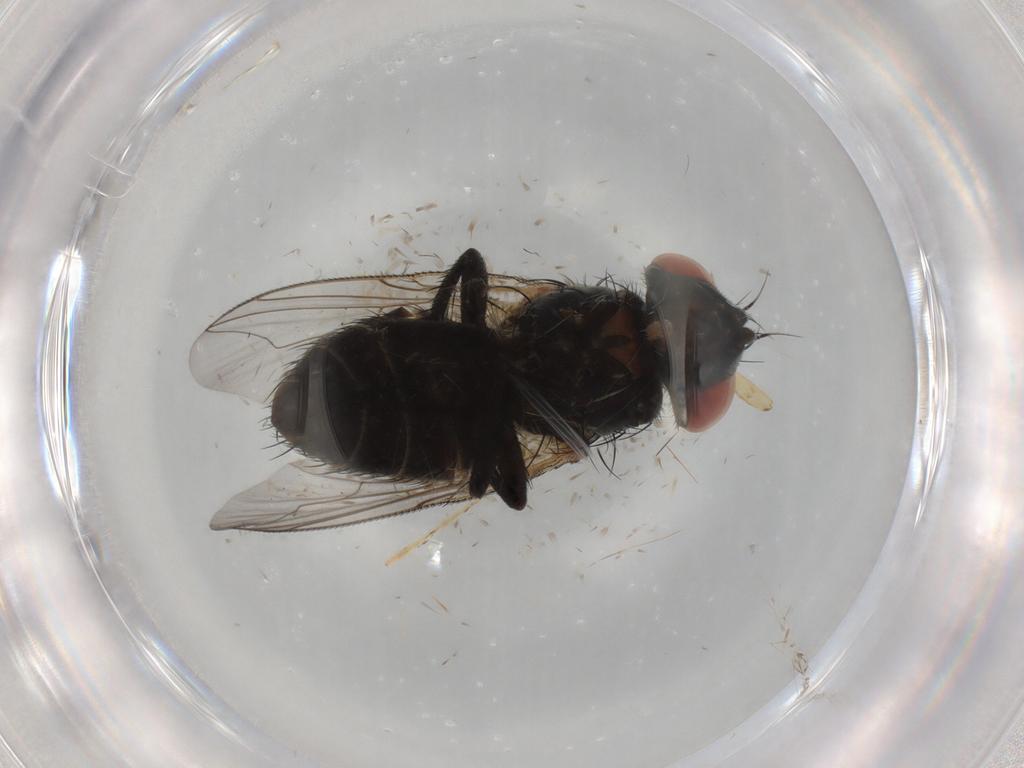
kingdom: Animalia
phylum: Arthropoda
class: Insecta
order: Diptera
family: Sarcophagidae
